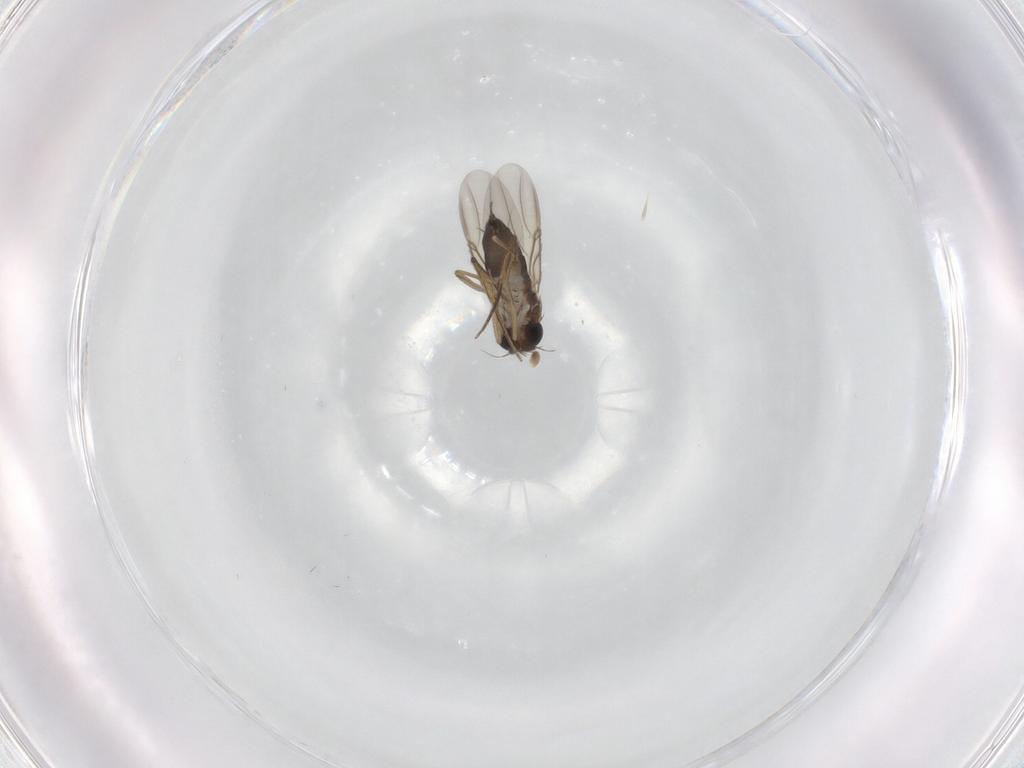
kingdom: Animalia
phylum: Arthropoda
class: Insecta
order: Diptera
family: Phoridae
